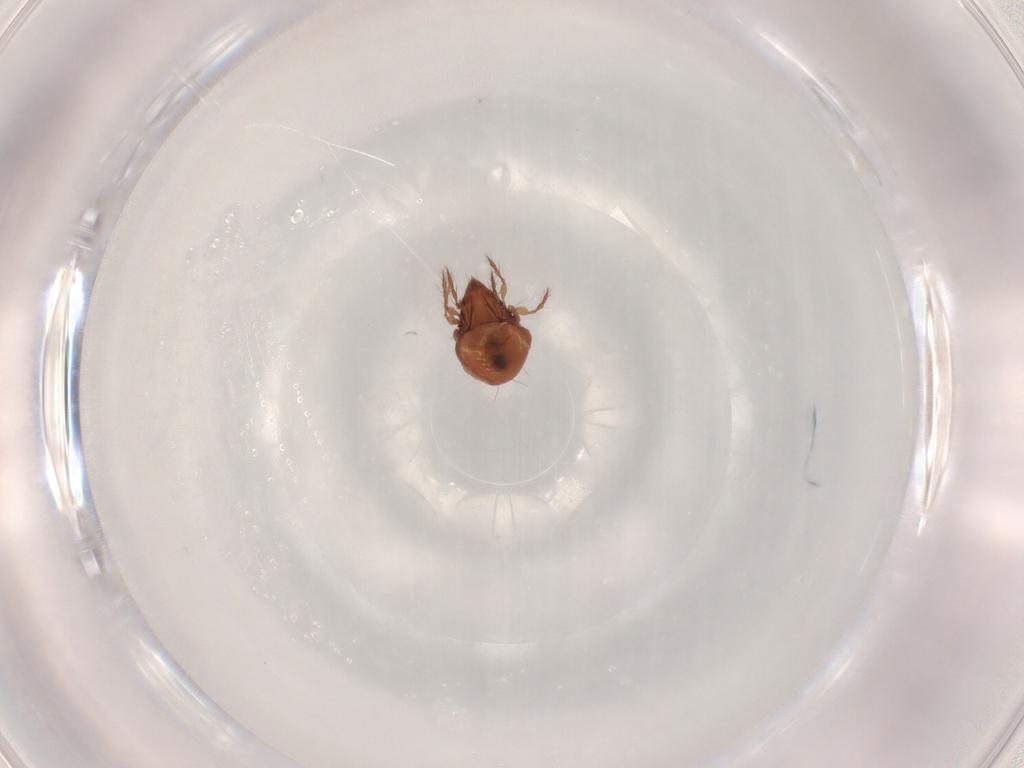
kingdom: Animalia
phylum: Arthropoda
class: Arachnida
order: Sarcoptiformes
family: Ceratoppiidae
